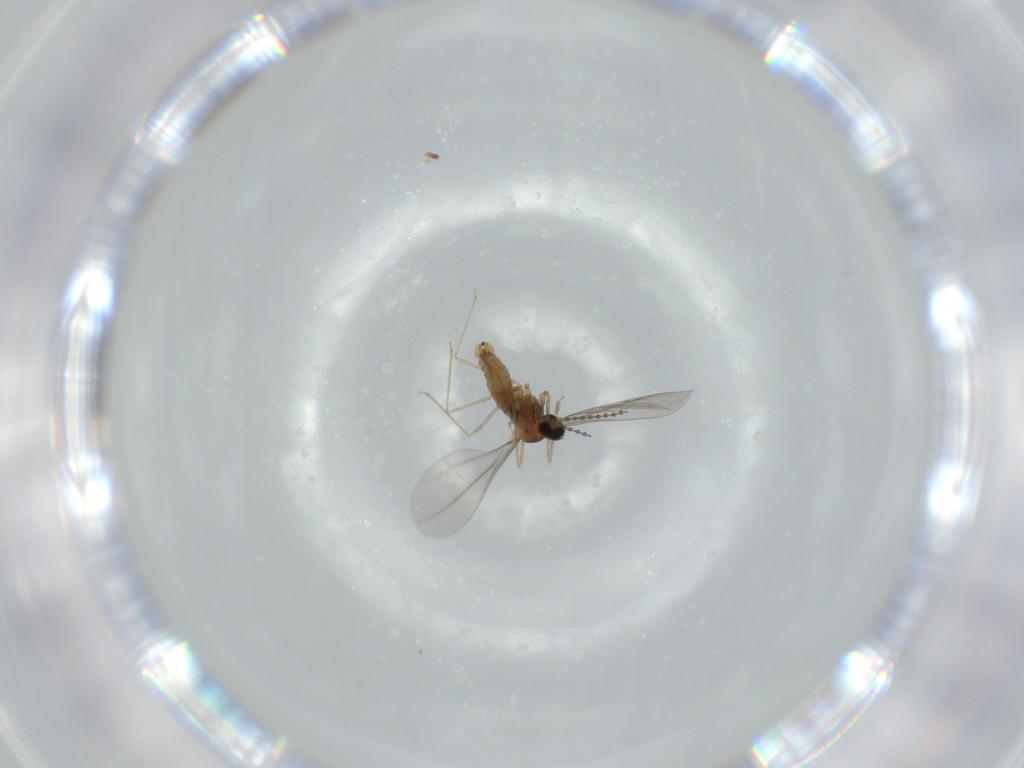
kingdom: Animalia
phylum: Arthropoda
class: Insecta
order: Diptera
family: Cecidomyiidae
